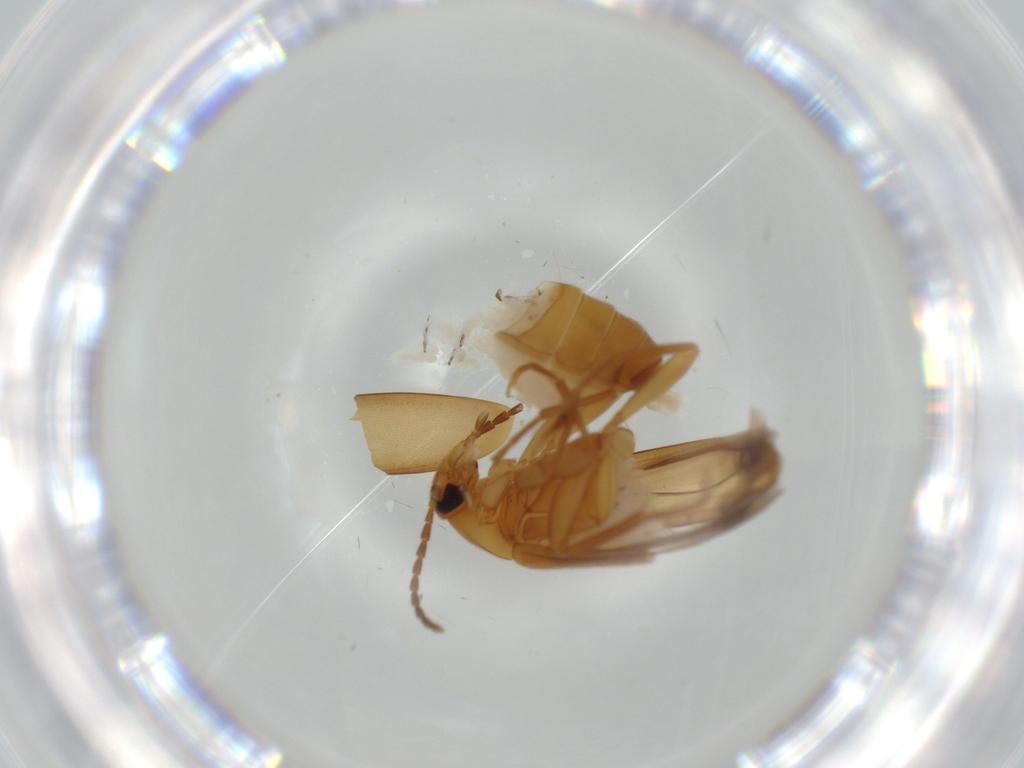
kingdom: Animalia
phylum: Arthropoda
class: Insecta
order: Coleoptera
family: Scraptiidae
